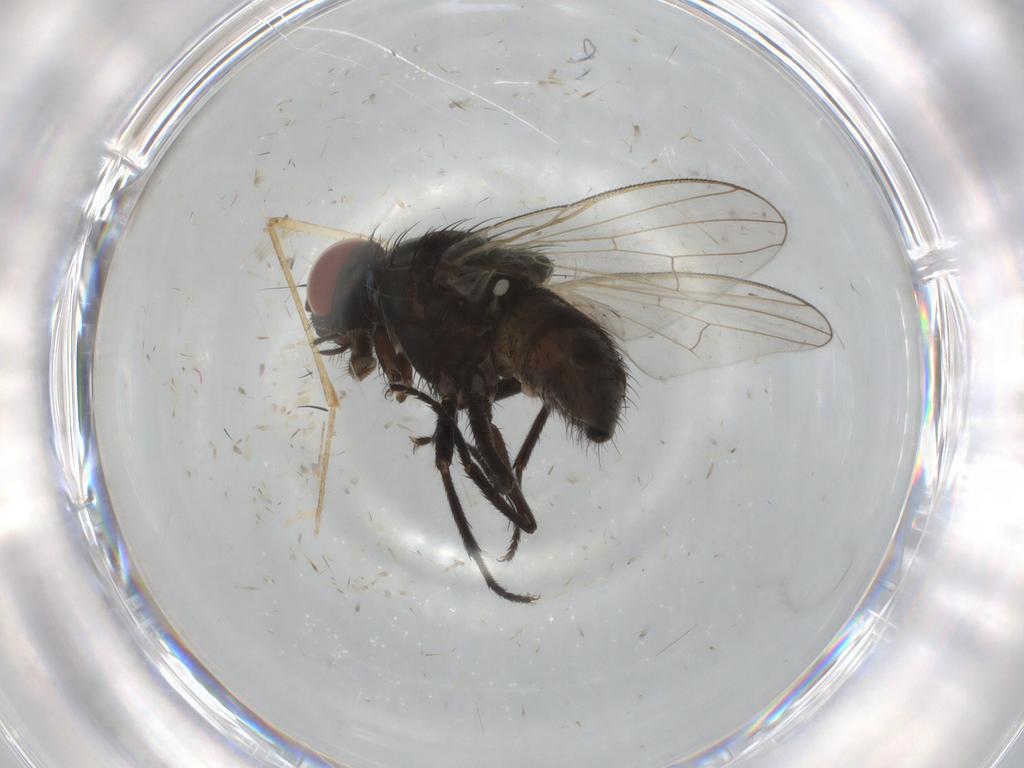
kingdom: Animalia
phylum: Arthropoda
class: Insecta
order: Diptera
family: Muscidae
